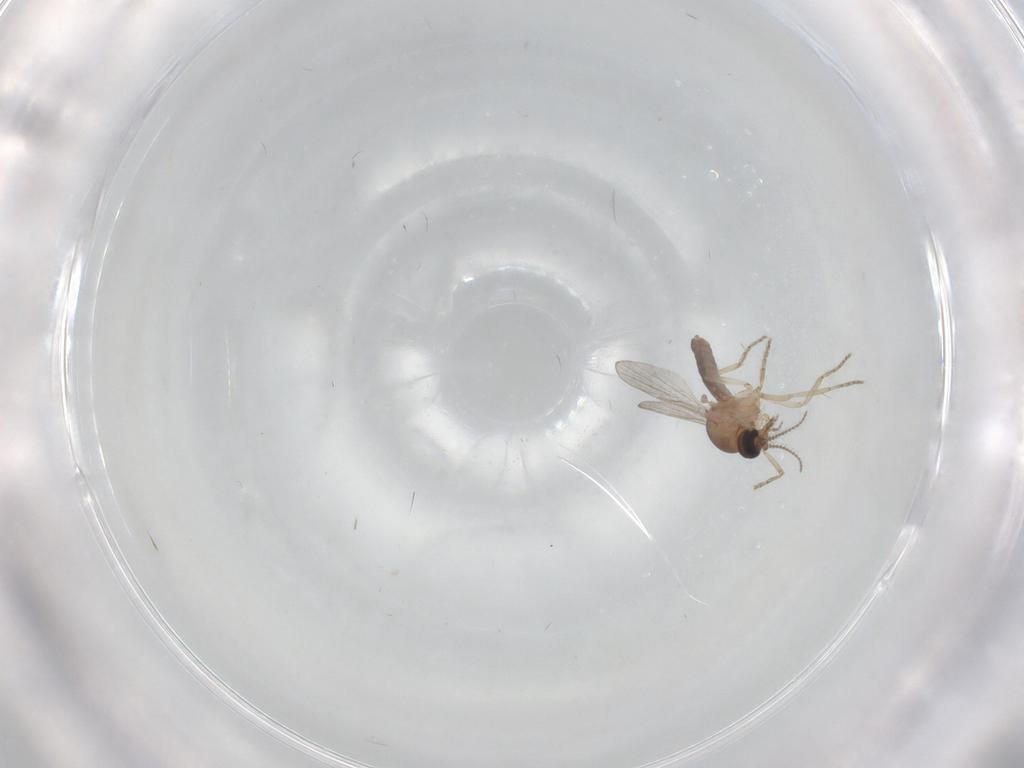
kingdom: Animalia
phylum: Arthropoda
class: Insecta
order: Diptera
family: Ceratopogonidae
